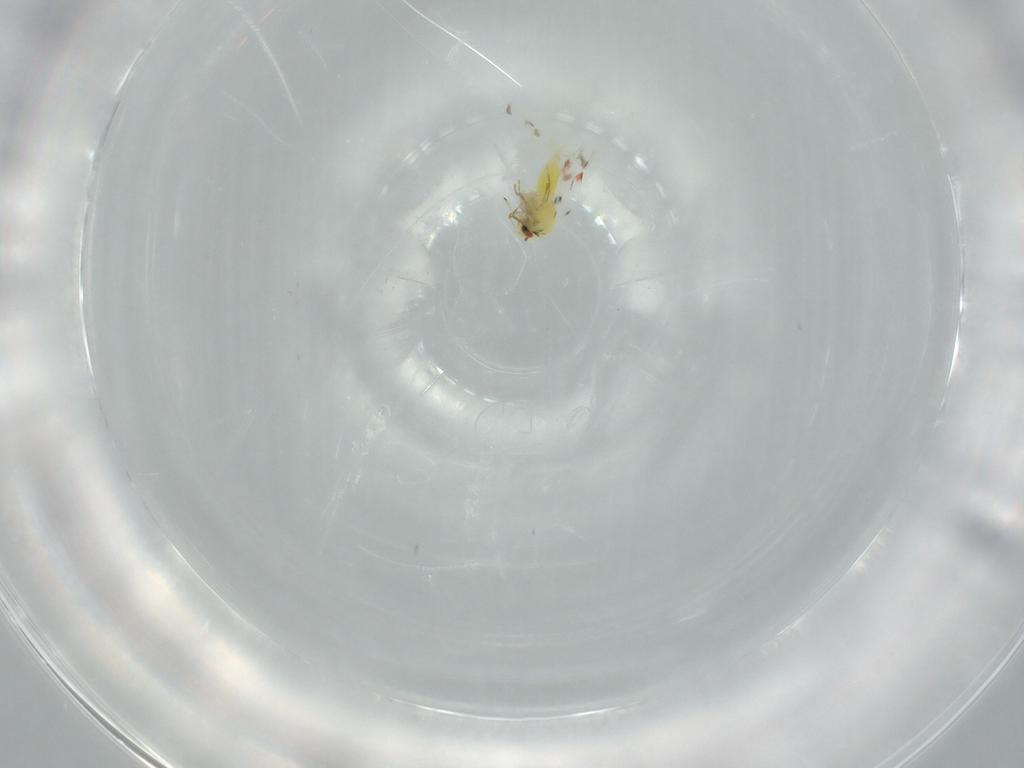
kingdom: Animalia
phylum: Arthropoda
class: Insecta
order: Hemiptera
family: Aleyrodidae
